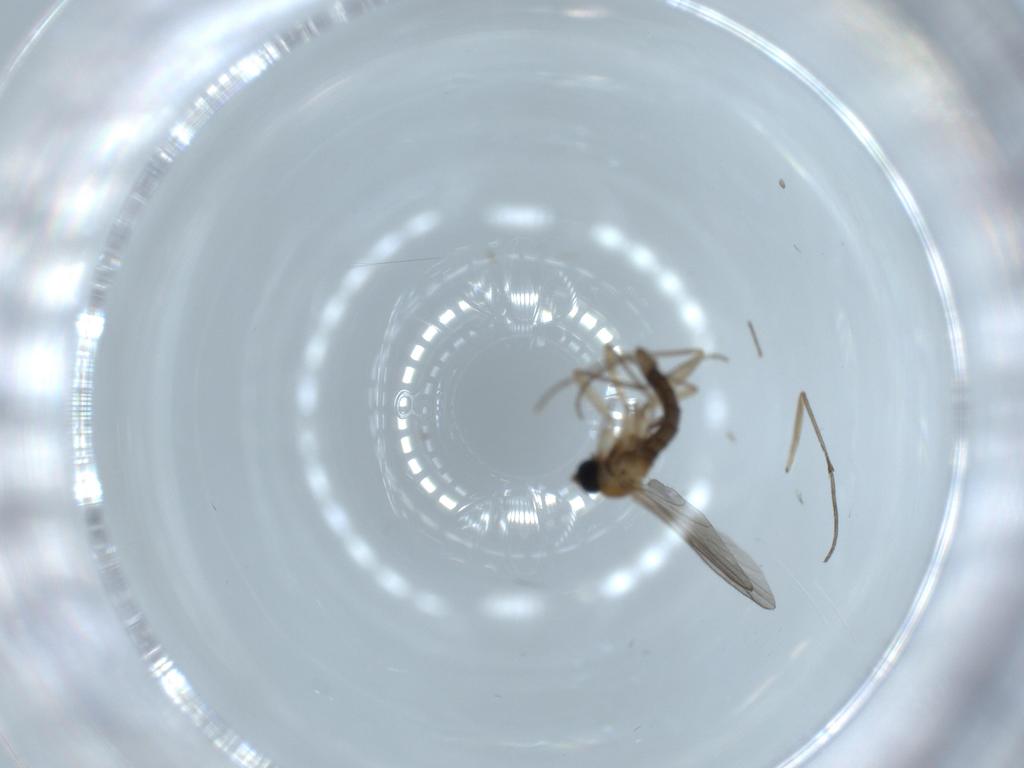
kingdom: Animalia
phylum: Arthropoda
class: Insecta
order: Diptera
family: Sciaridae
